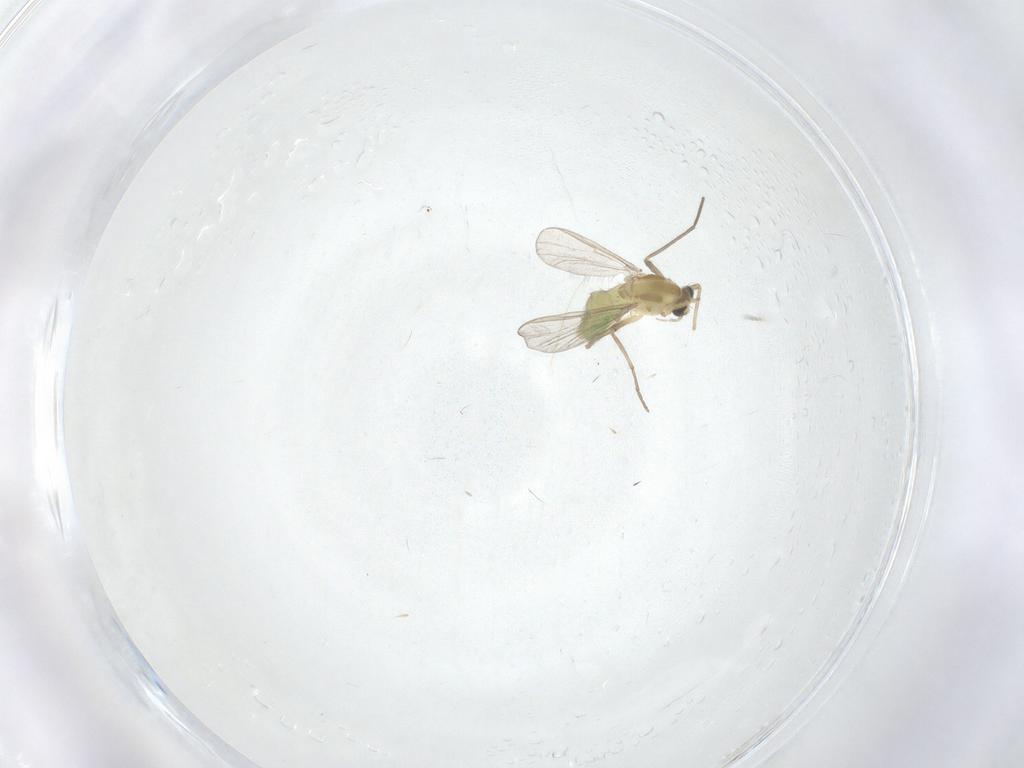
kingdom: Animalia
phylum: Arthropoda
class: Insecta
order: Diptera
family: Chironomidae
